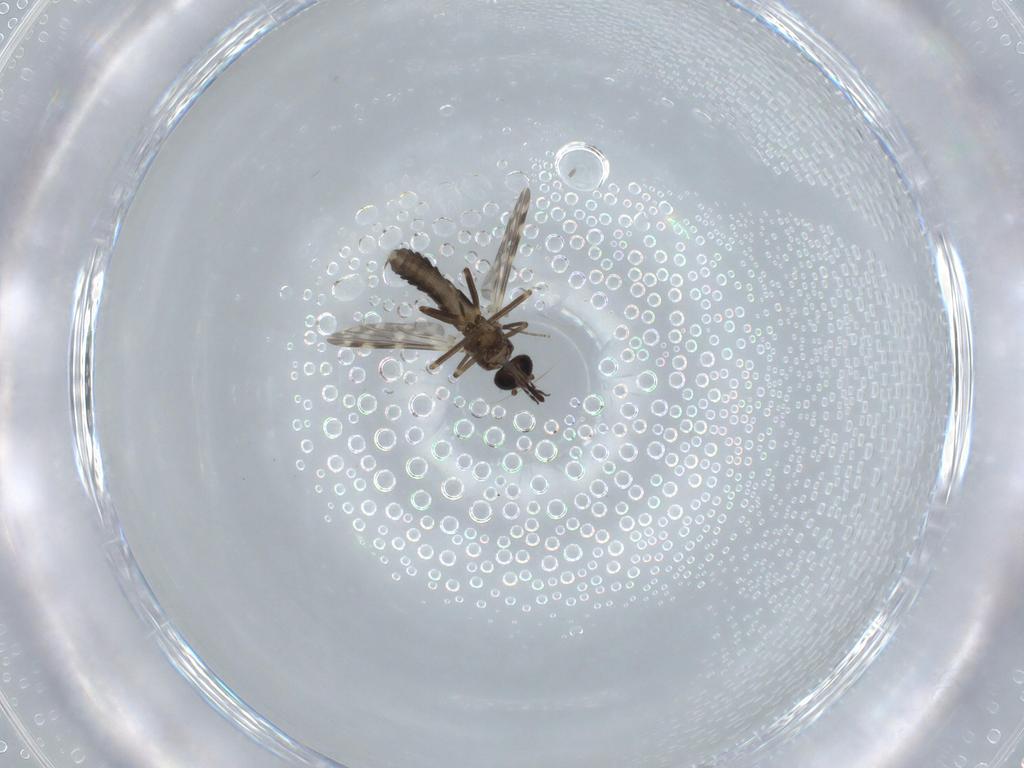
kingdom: Animalia
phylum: Arthropoda
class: Insecta
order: Diptera
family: Ceratopogonidae
